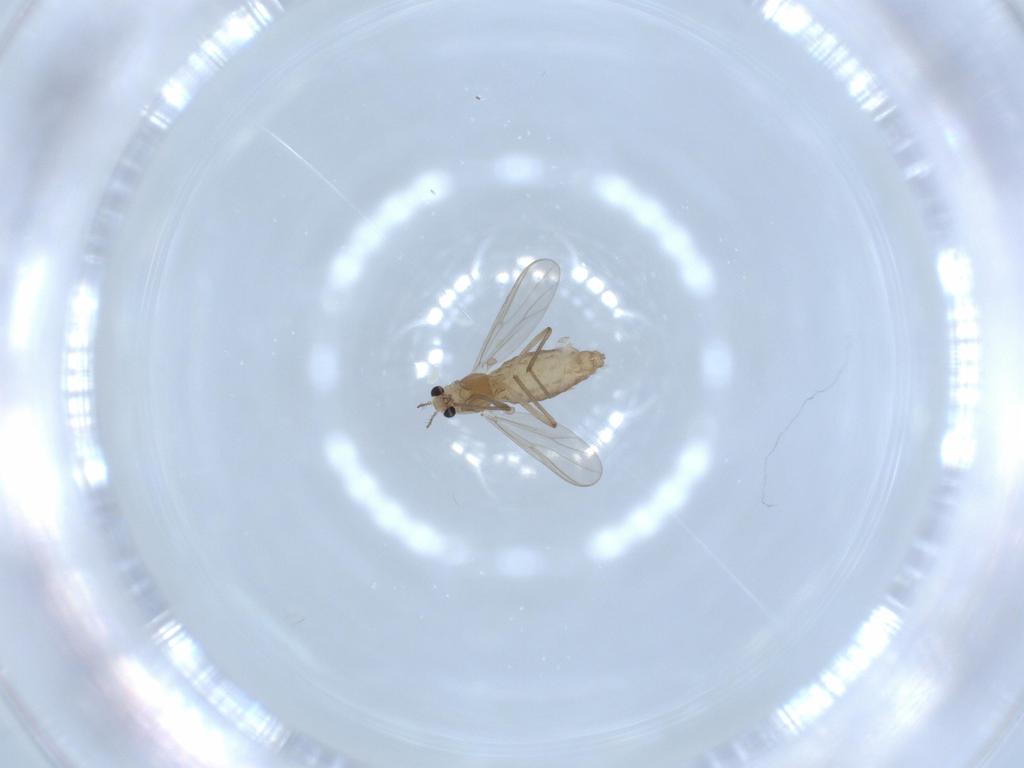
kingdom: Animalia
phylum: Arthropoda
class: Insecta
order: Diptera
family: Chironomidae
